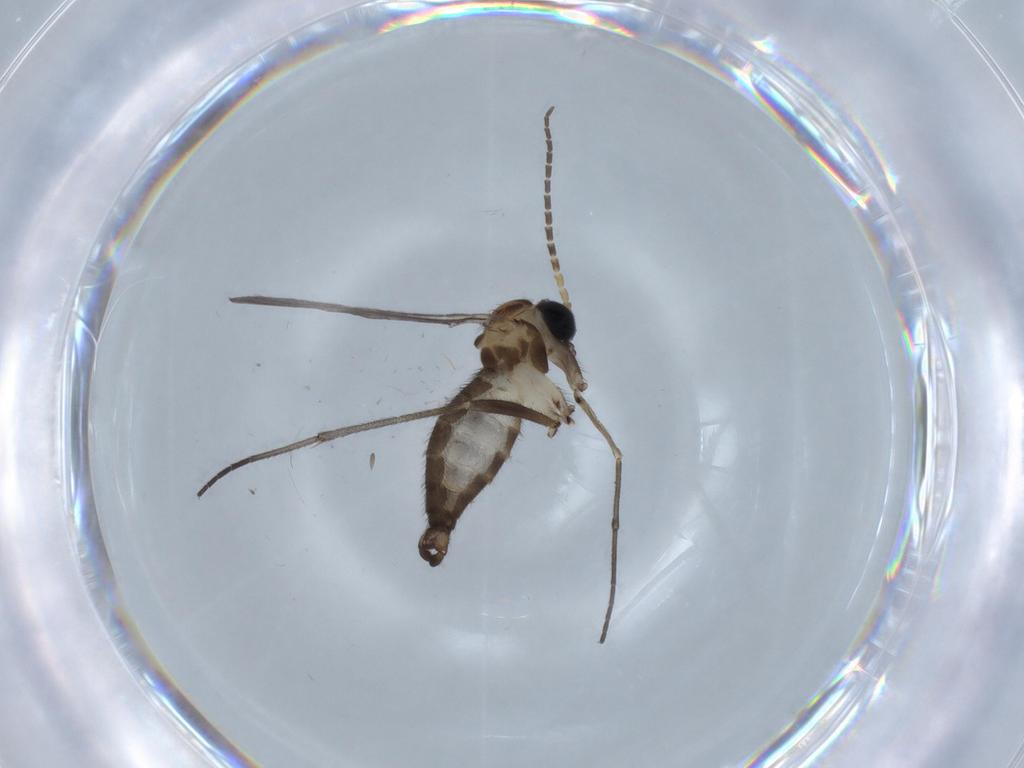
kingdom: Animalia
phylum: Arthropoda
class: Insecta
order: Diptera
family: Sciaridae
